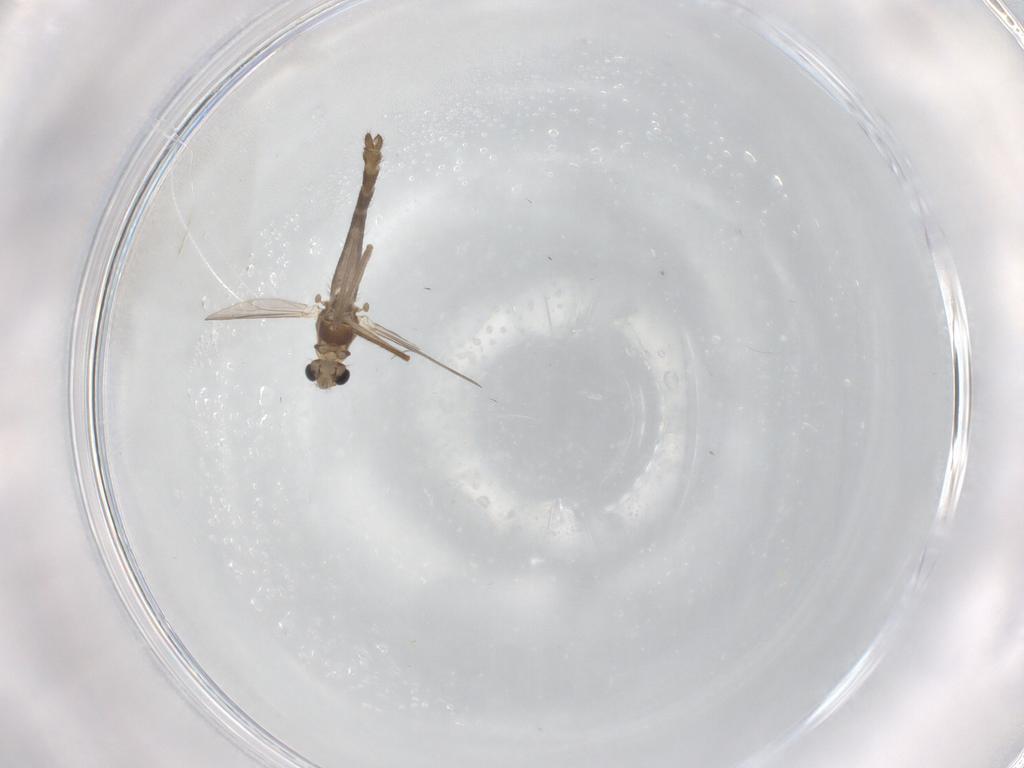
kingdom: Animalia
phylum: Arthropoda
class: Insecta
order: Diptera
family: Chironomidae
